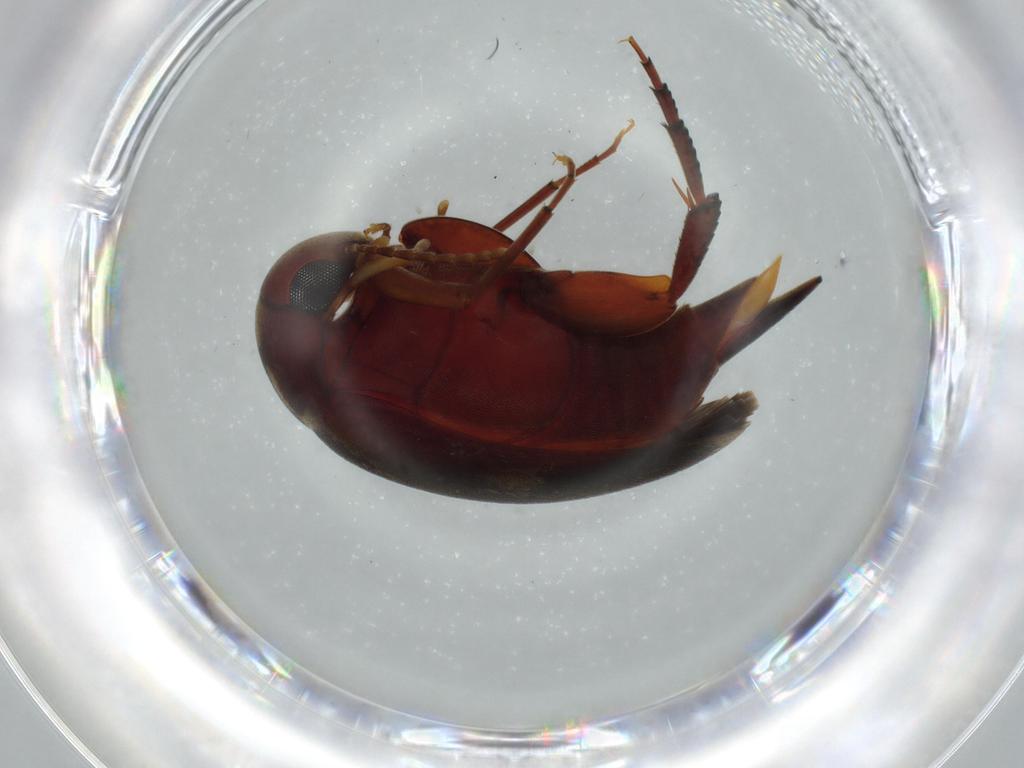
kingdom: Animalia
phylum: Arthropoda
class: Insecta
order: Coleoptera
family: Mordellidae
